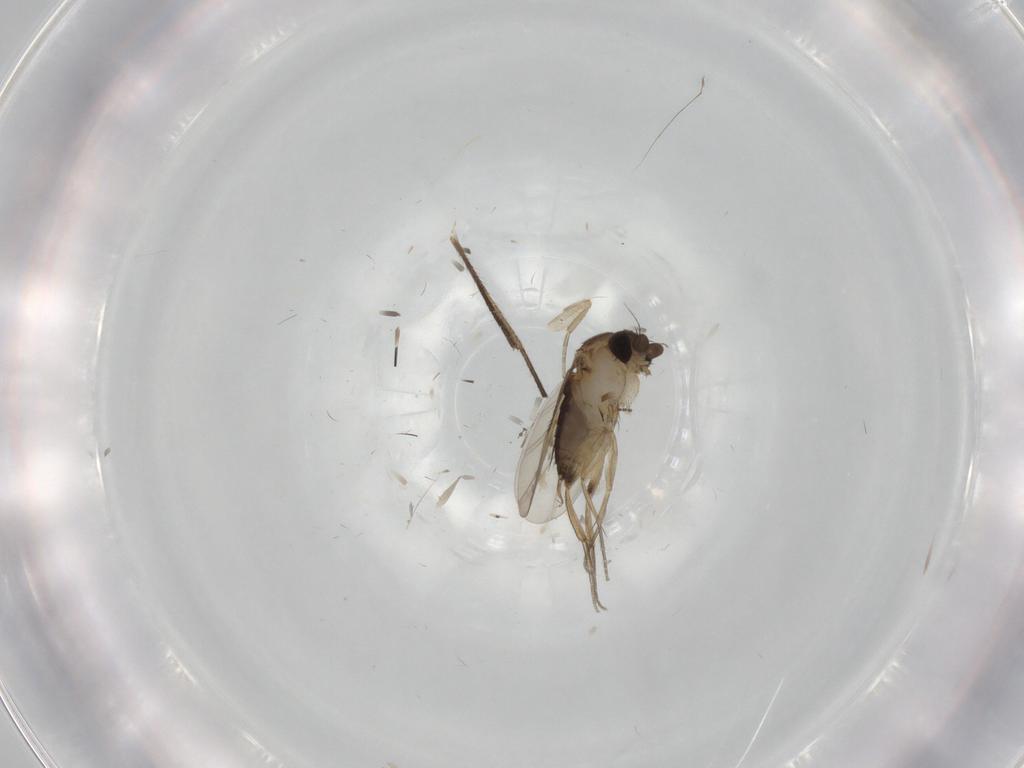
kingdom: Animalia
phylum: Arthropoda
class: Insecta
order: Diptera
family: Phoridae
